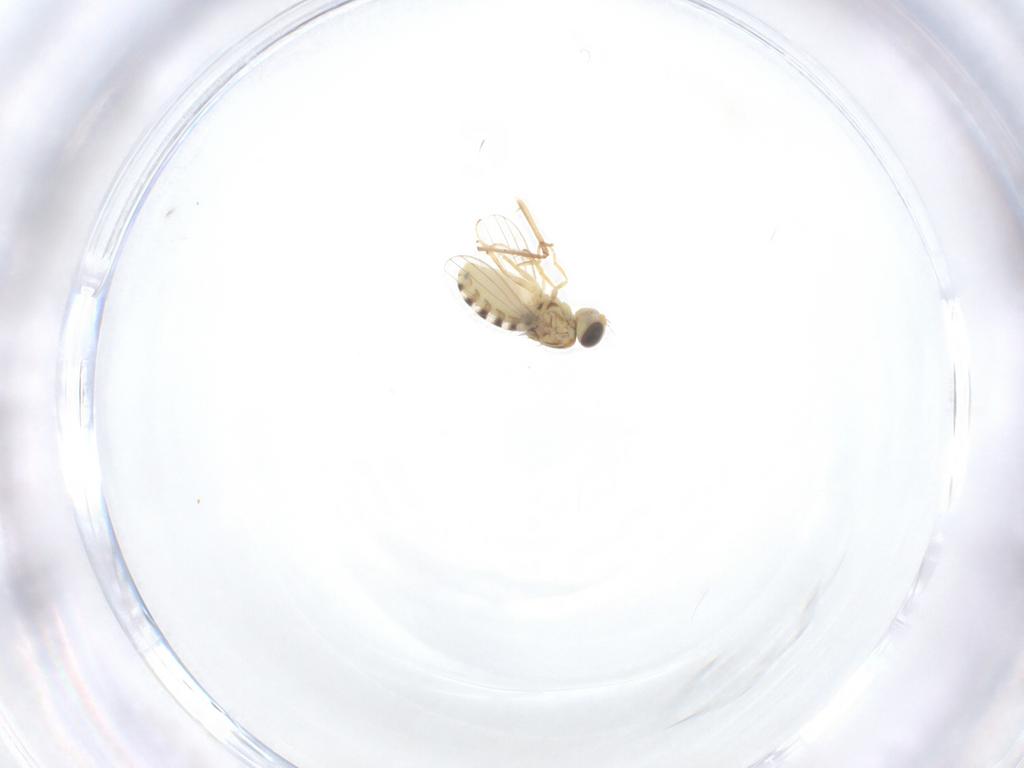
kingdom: Animalia
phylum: Arthropoda
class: Insecta
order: Diptera
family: Chyromyidae
